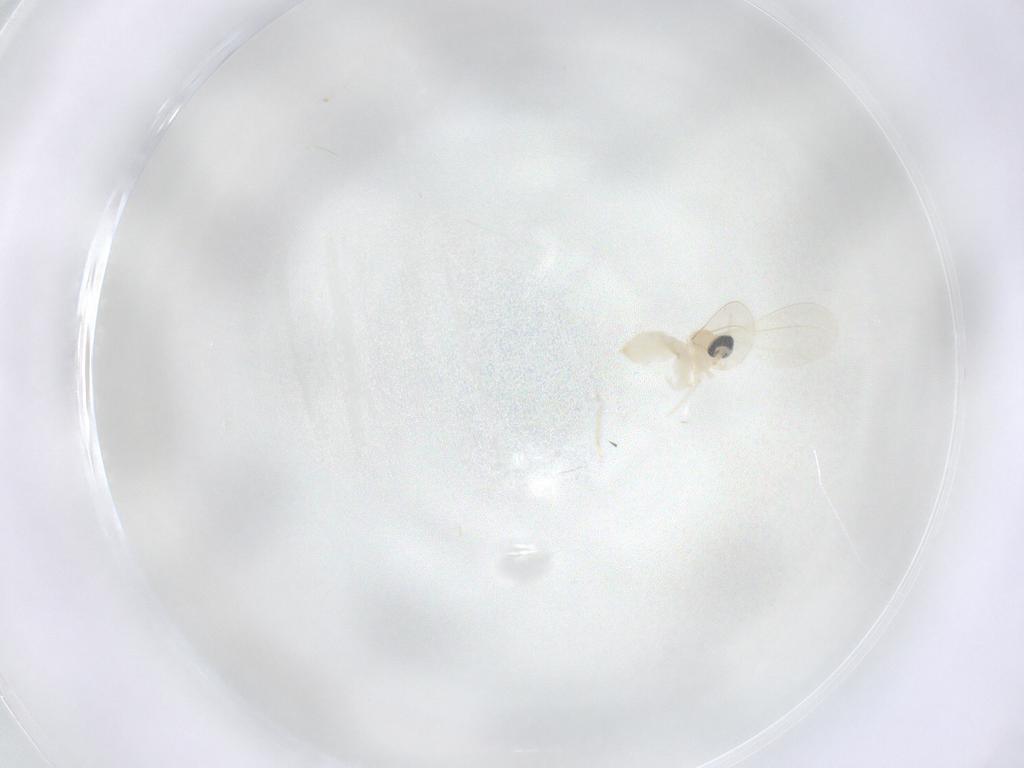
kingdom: Animalia
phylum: Arthropoda
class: Insecta
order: Diptera
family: Cecidomyiidae
